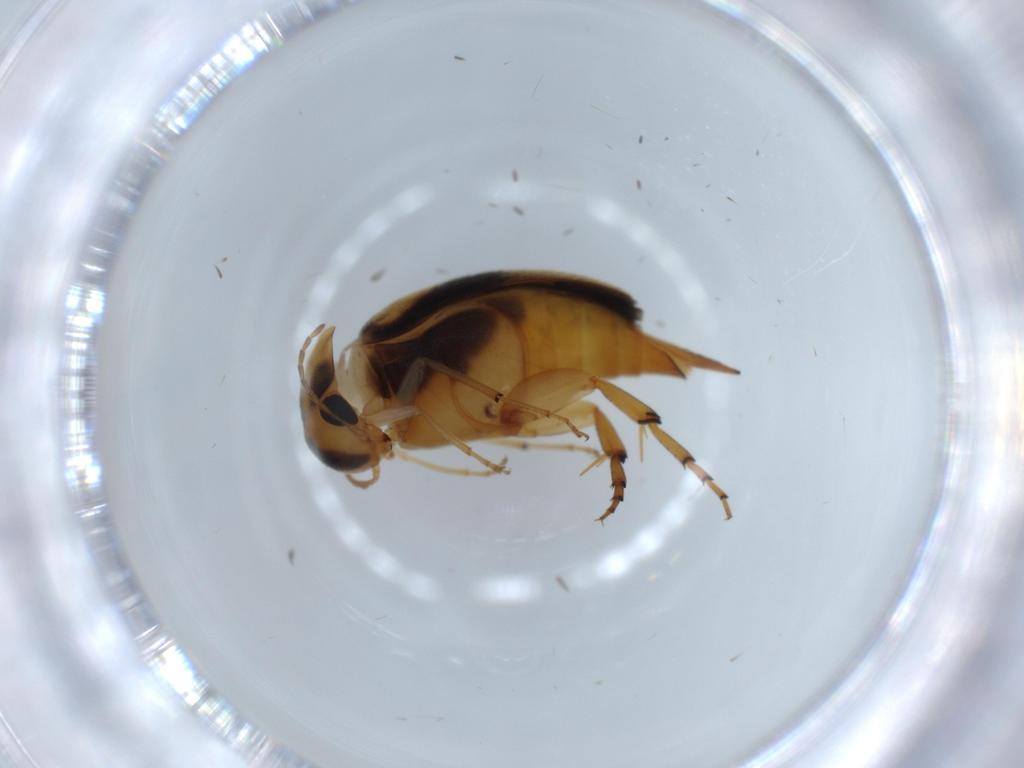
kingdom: Animalia
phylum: Arthropoda
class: Insecta
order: Coleoptera
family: Mordellidae
